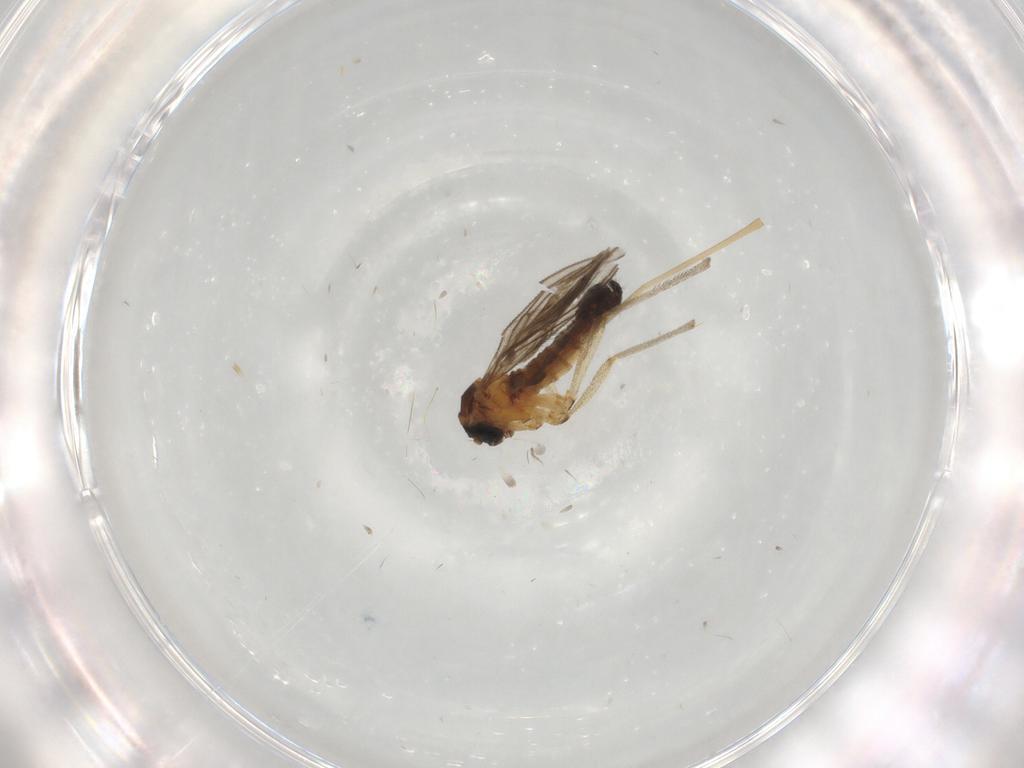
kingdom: Animalia
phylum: Arthropoda
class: Insecta
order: Diptera
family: Sciaridae
